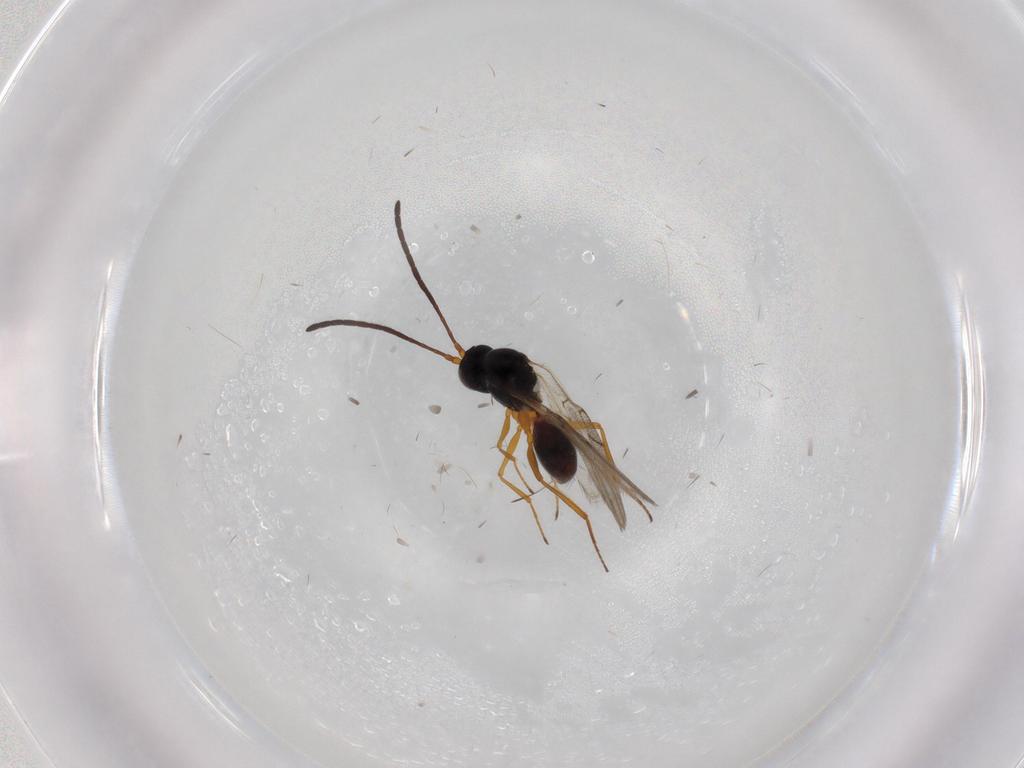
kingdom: Animalia
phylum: Arthropoda
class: Insecta
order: Hymenoptera
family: Figitidae
